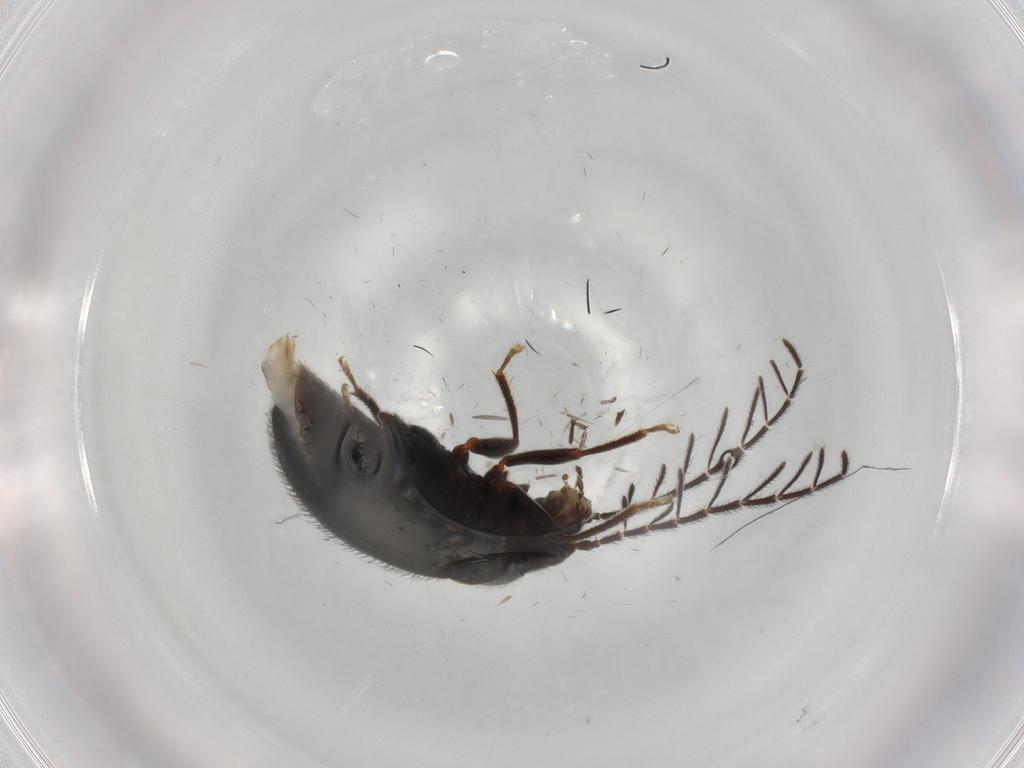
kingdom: Animalia
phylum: Arthropoda
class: Insecta
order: Coleoptera
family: Ptilodactylidae
